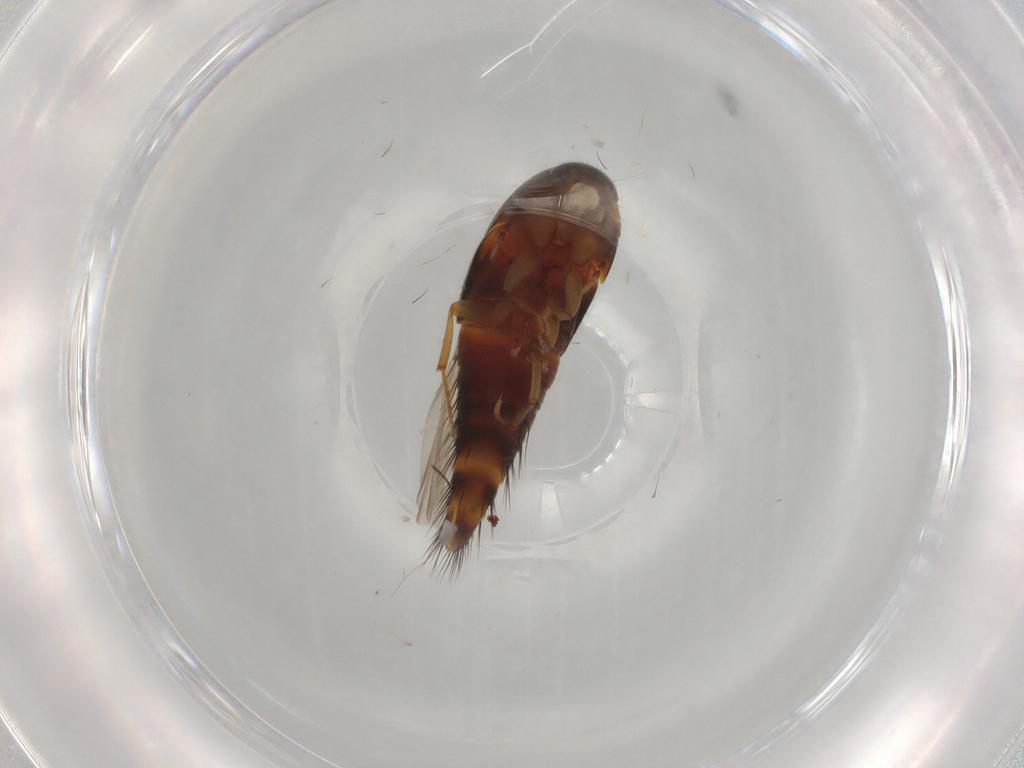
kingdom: Animalia
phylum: Arthropoda
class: Insecta
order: Coleoptera
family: Staphylinidae
